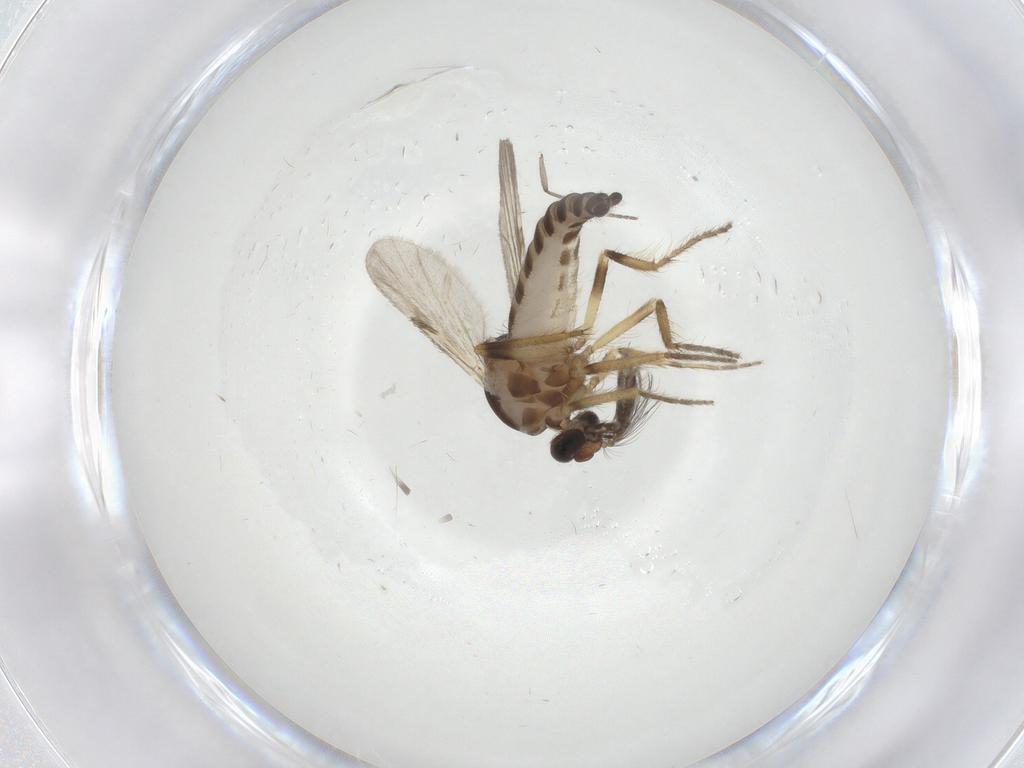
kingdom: Animalia
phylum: Arthropoda
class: Insecta
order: Diptera
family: Ceratopogonidae
